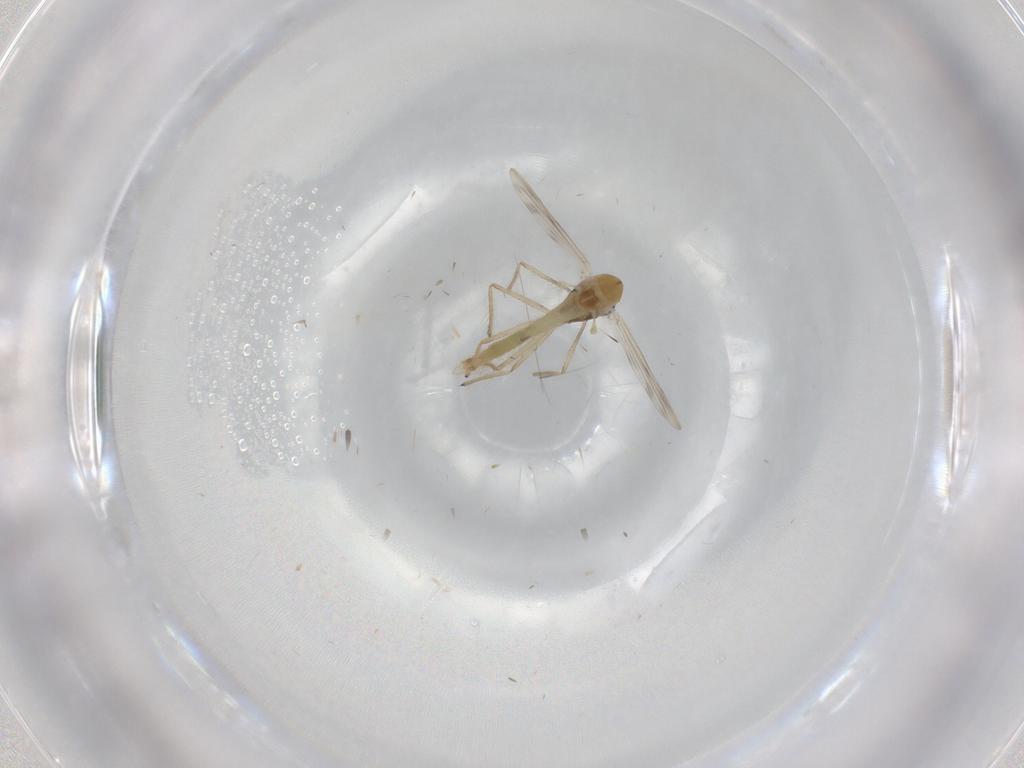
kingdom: Animalia
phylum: Arthropoda
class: Insecta
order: Diptera
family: Chironomidae
